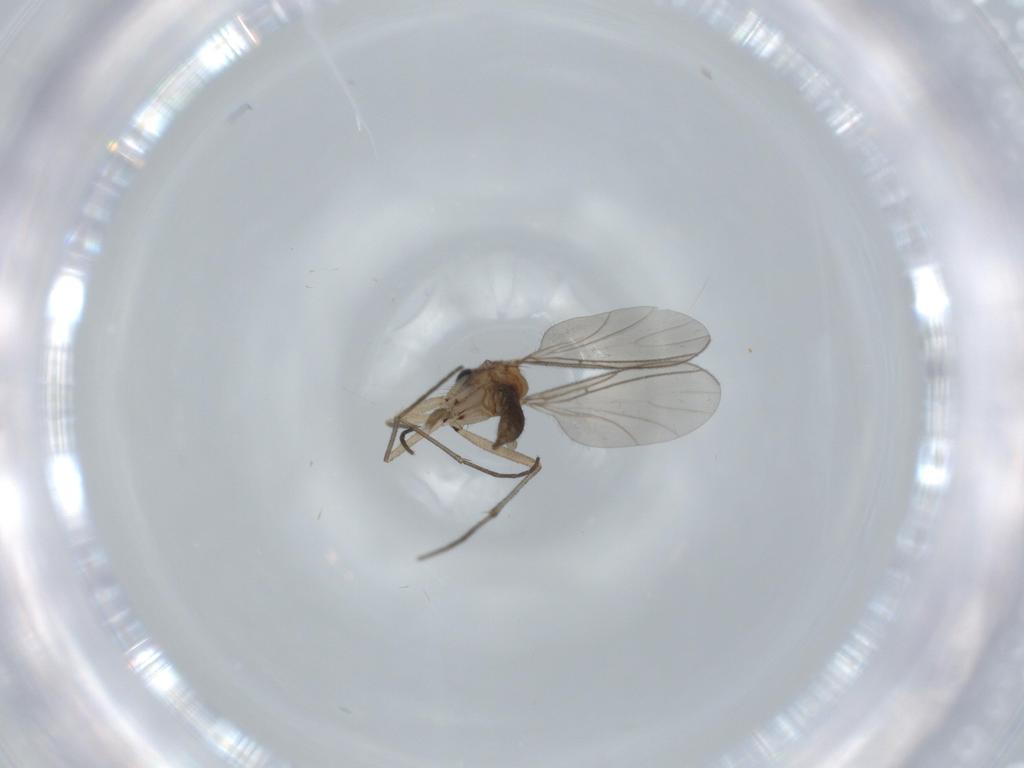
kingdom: Animalia
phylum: Arthropoda
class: Insecta
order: Diptera
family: Sciaridae
